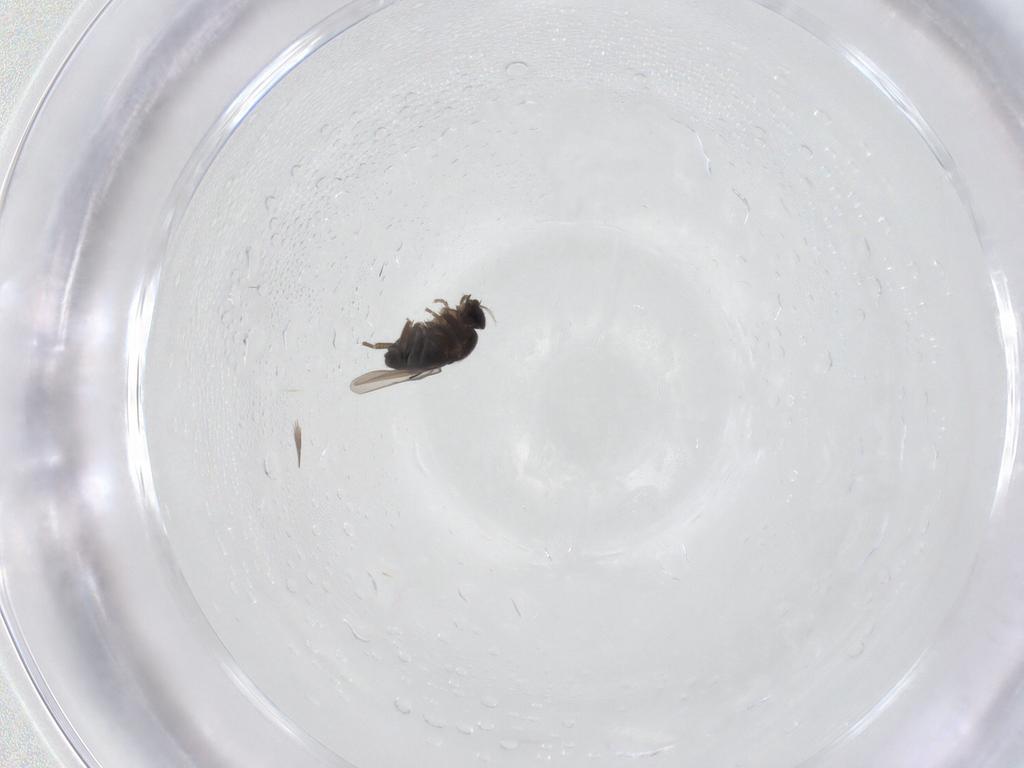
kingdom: Animalia
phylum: Arthropoda
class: Insecta
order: Diptera
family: Phoridae
